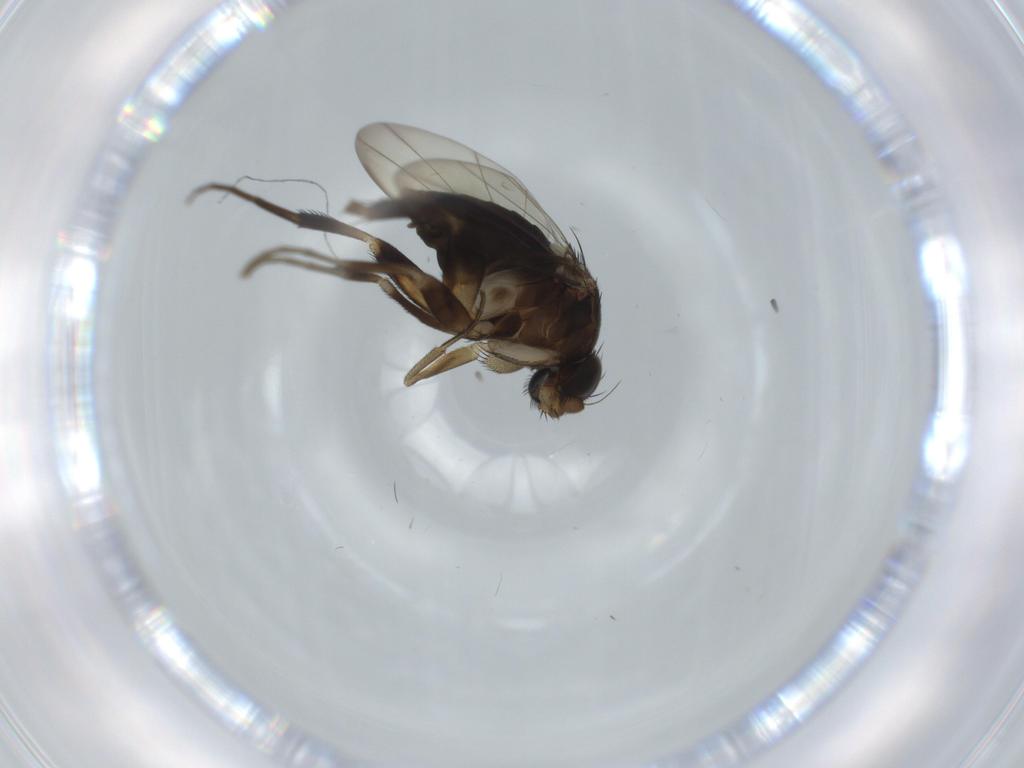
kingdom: Animalia
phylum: Arthropoda
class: Insecta
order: Diptera
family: Phoridae
